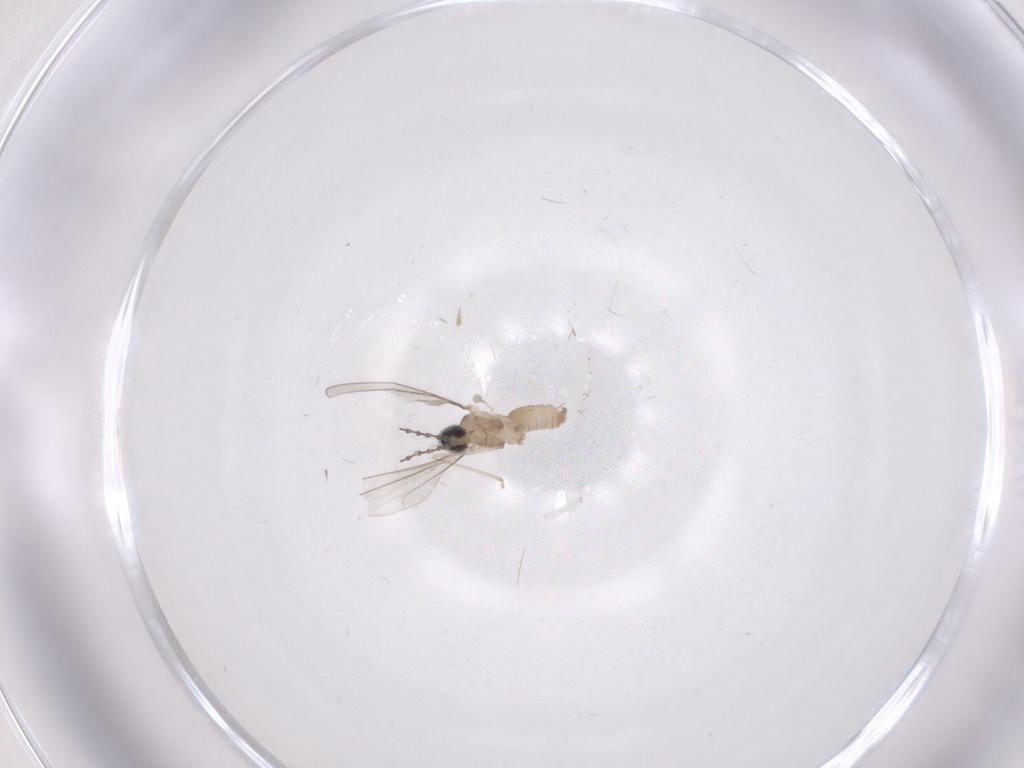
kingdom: Animalia
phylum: Arthropoda
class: Insecta
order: Diptera
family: Cecidomyiidae
